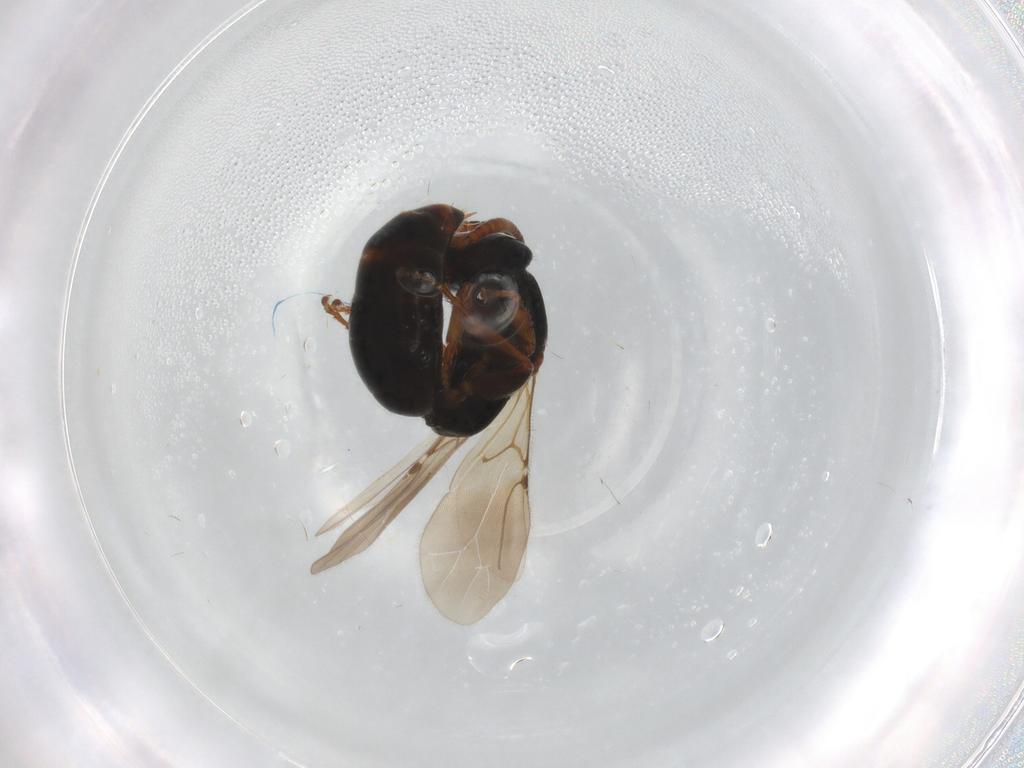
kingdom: Animalia
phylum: Arthropoda
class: Insecta
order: Hymenoptera
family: Bethylidae
